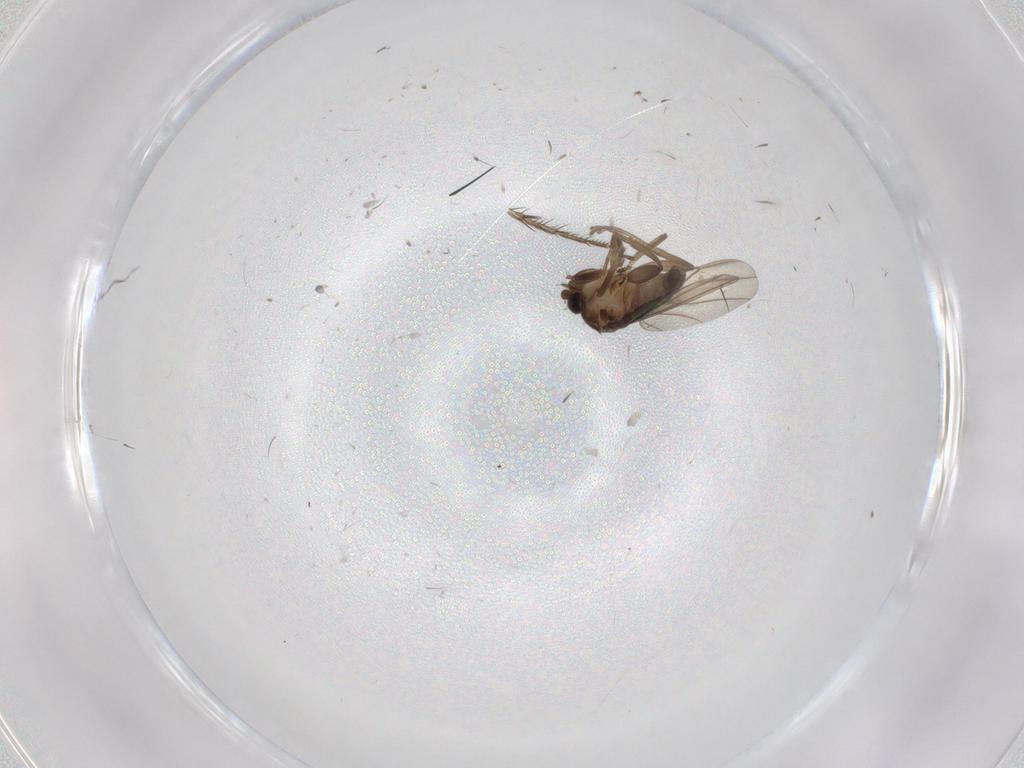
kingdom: Animalia
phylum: Arthropoda
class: Insecta
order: Diptera
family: Phoridae
